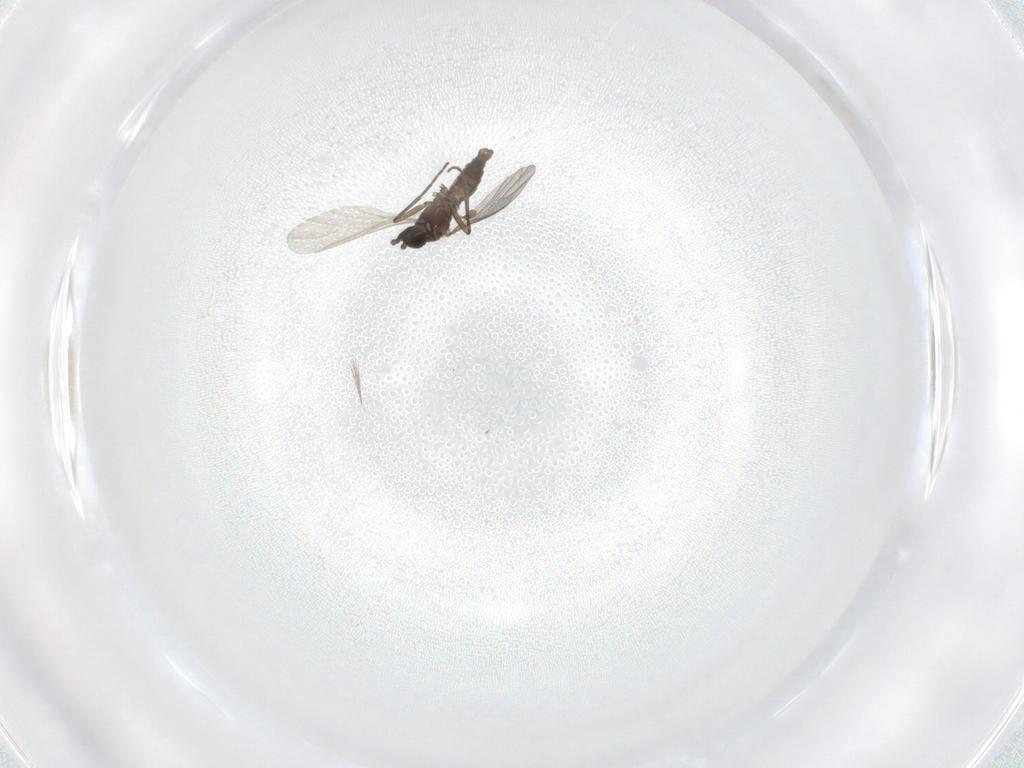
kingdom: Animalia
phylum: Arthropoda
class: Insecta
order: Diptera
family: Sciaridae
